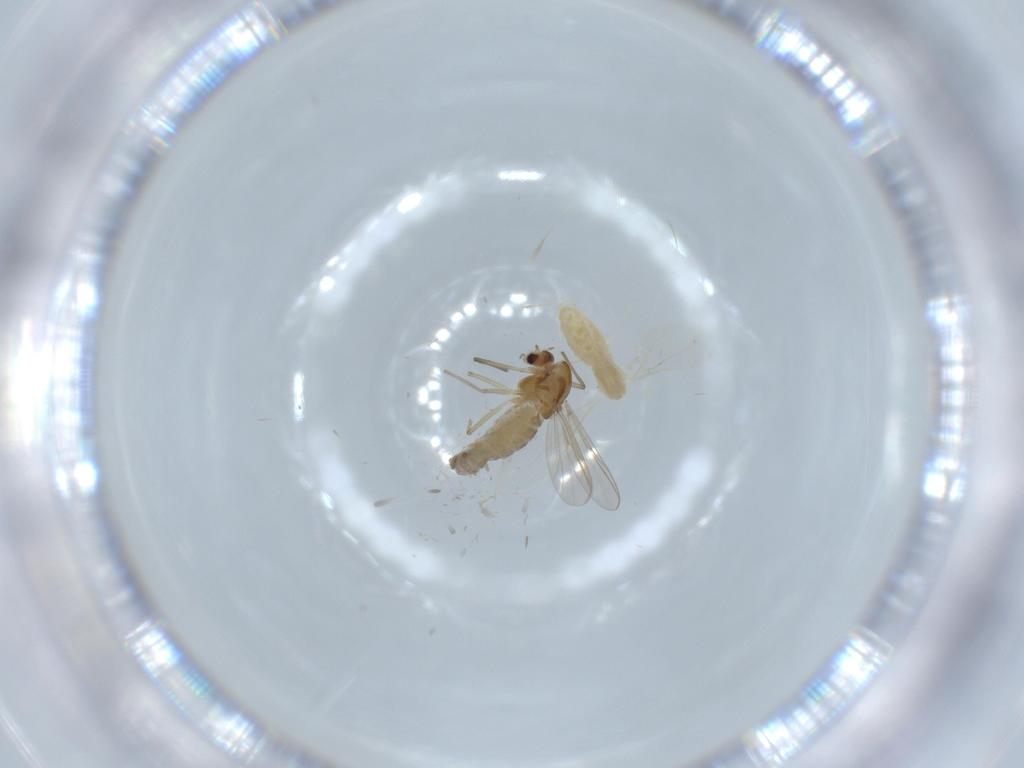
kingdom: Animalia
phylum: Arthropoda
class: Insecta
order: Diptera
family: Cecidomyiidae
